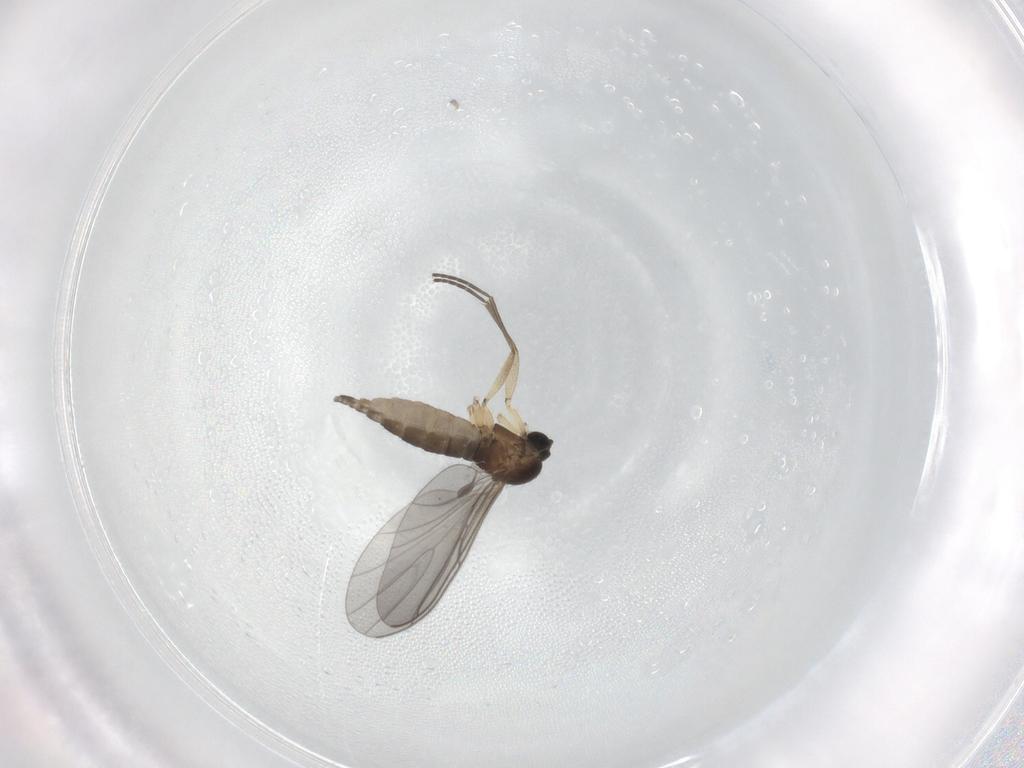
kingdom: Animalia
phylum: Arthropoda
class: Insecta
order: Diptera
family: Sciaridae
